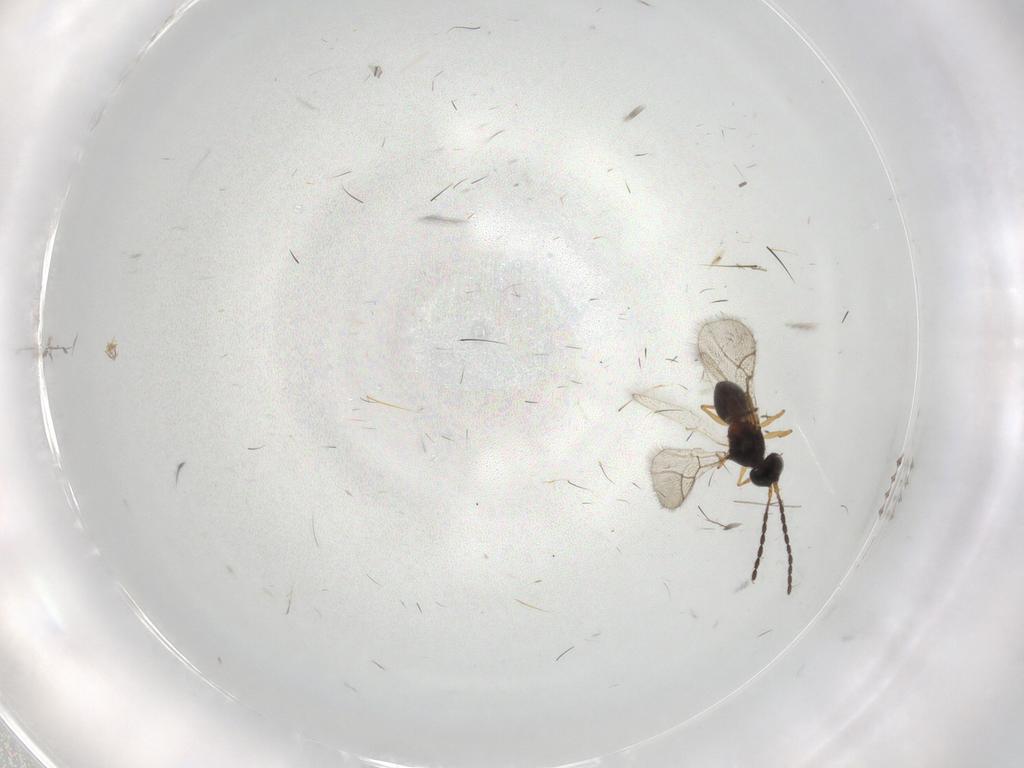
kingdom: Animalia
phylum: Arthropoda
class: Insecta
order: Hymenoptera
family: Figitidae
